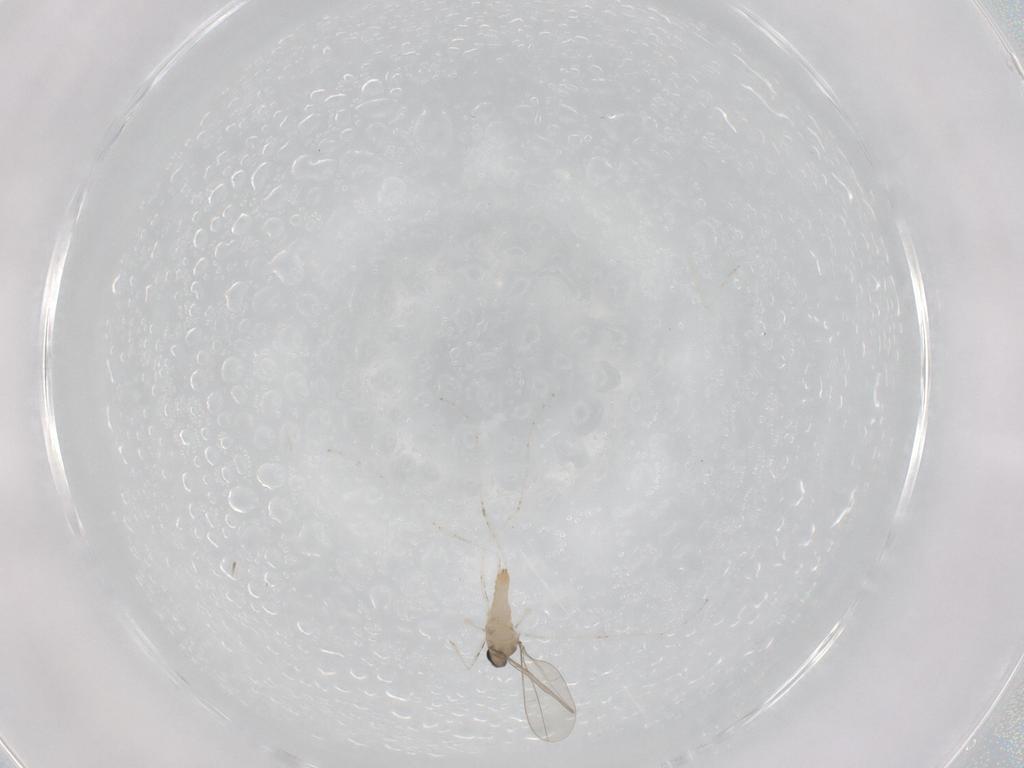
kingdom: Animalia
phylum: Arthropoda
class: Insecta
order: Diptera
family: Cecidomyiidae
